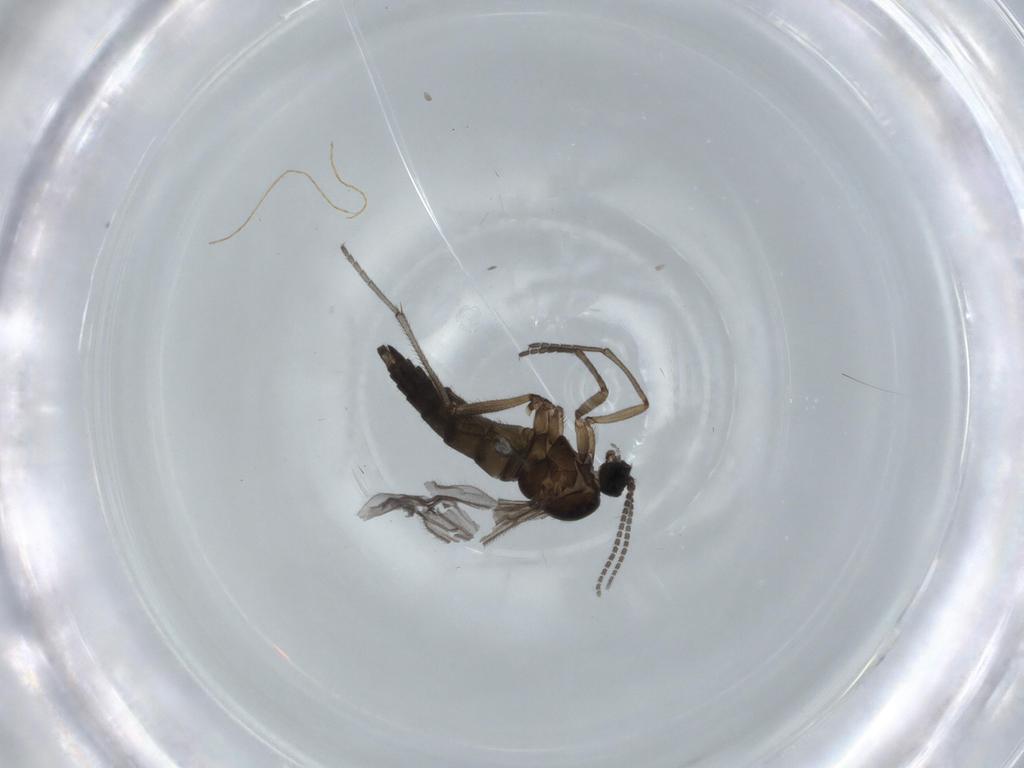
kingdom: Animalia
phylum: Arthropoda
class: Insecta
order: Diptera
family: Sciaridae
